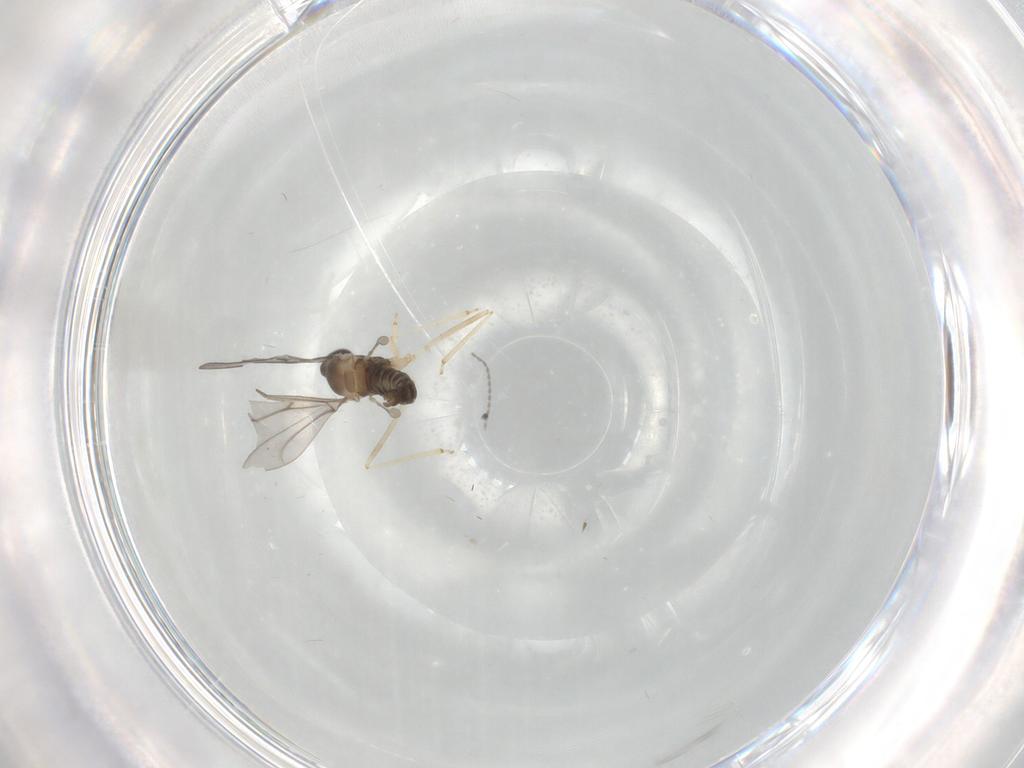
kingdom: Animalia
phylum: Arthropoda
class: Insecta
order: Diptera
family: Cecidomyiidae
